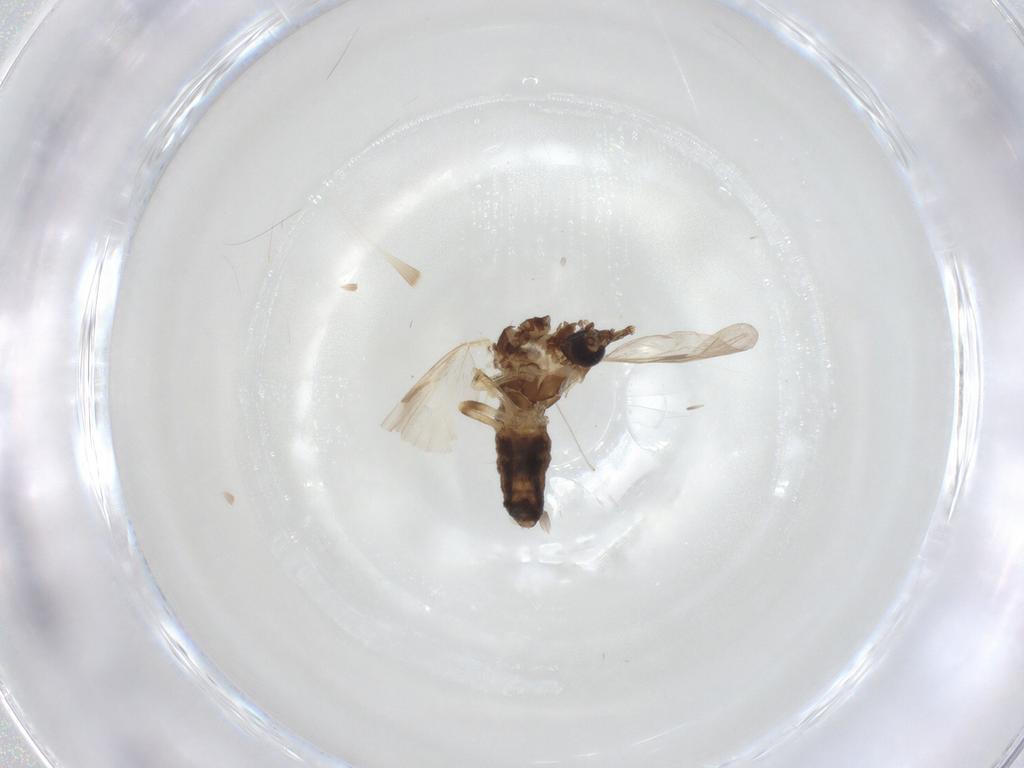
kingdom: Animalia
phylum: Arthropoda
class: Insecta
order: Diptera
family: Ceratopogonidae
